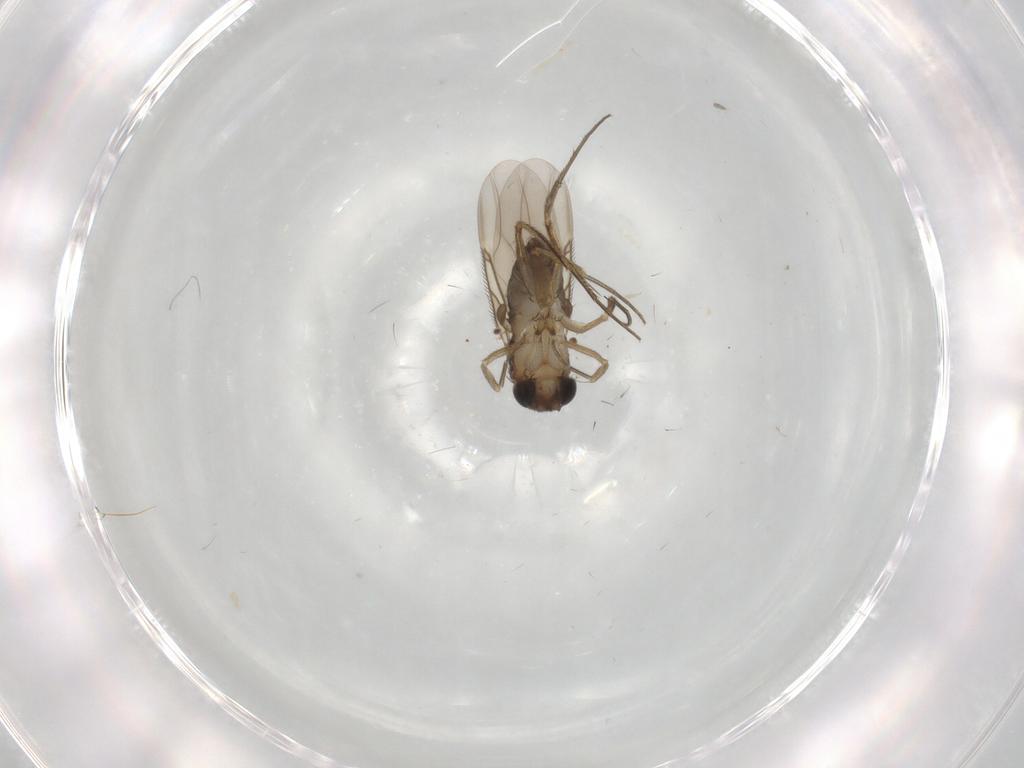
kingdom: Animalia
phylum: Arthropoda
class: Insecta
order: Diptera
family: Phoridae
